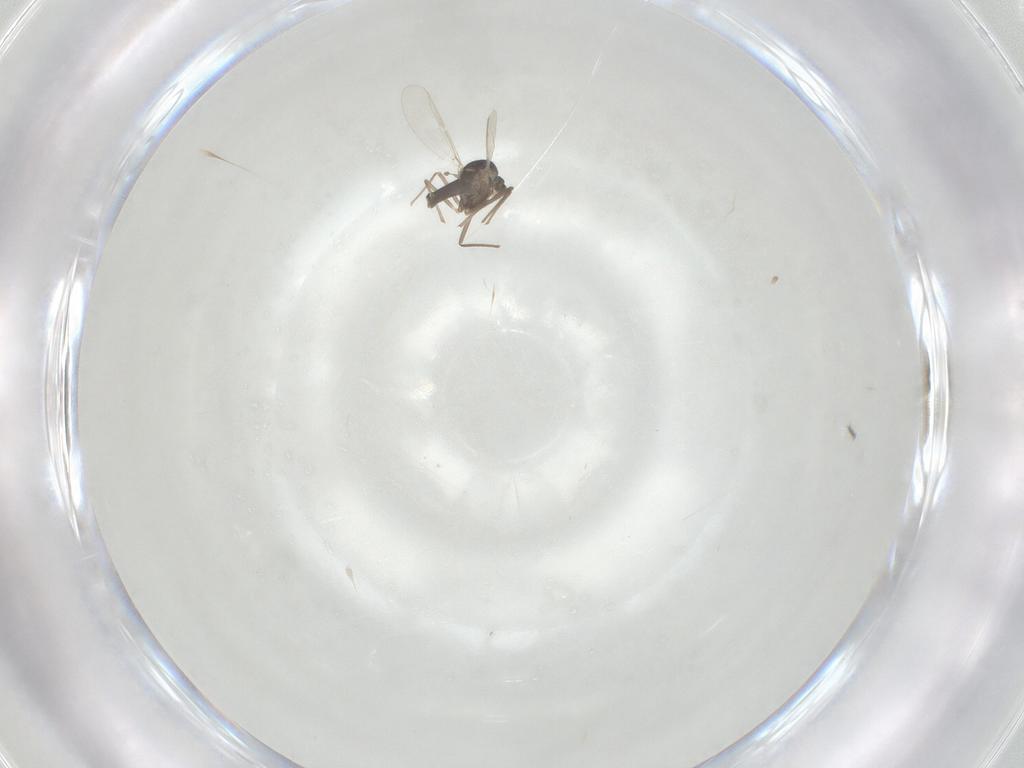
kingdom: Animalia
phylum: Arthropoda
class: Insecta
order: Diptera
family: Chironomidae
